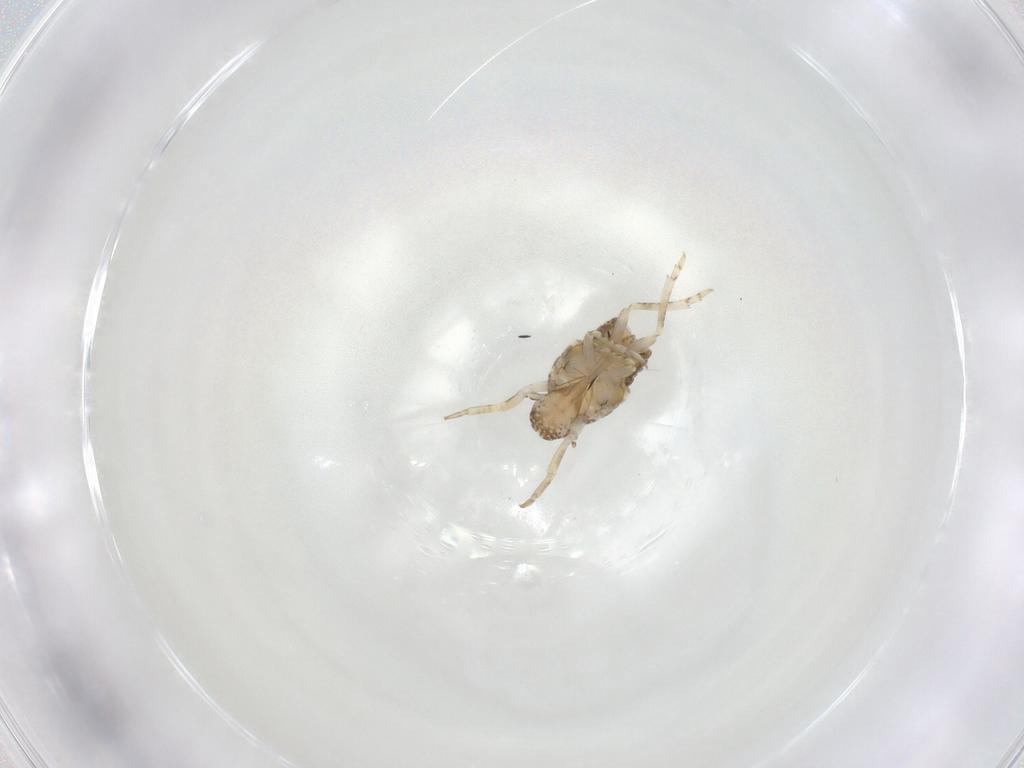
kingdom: Animalia
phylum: Arthropoda
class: Insecta
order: Hemiptera
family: Flatidae
